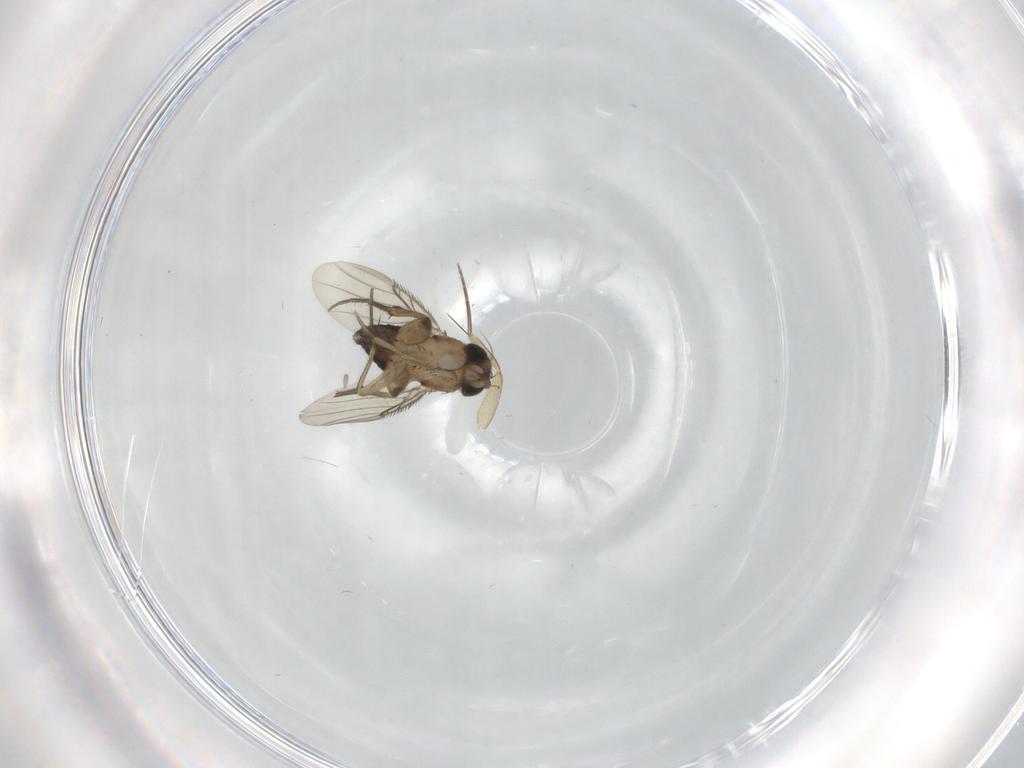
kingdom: Animalia
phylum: Arthropoda
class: Insecta
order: Diptera
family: Phoridae
